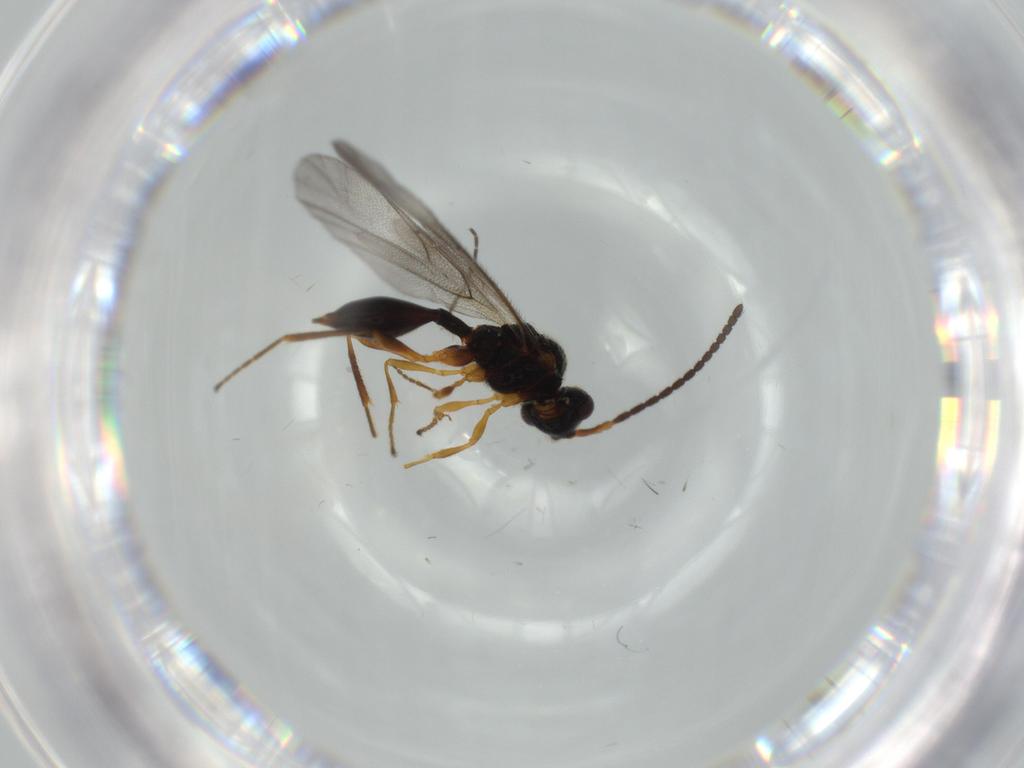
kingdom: Animalia
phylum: Arthropoda
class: Insecta
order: Hymenoptera
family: Diapriidae
